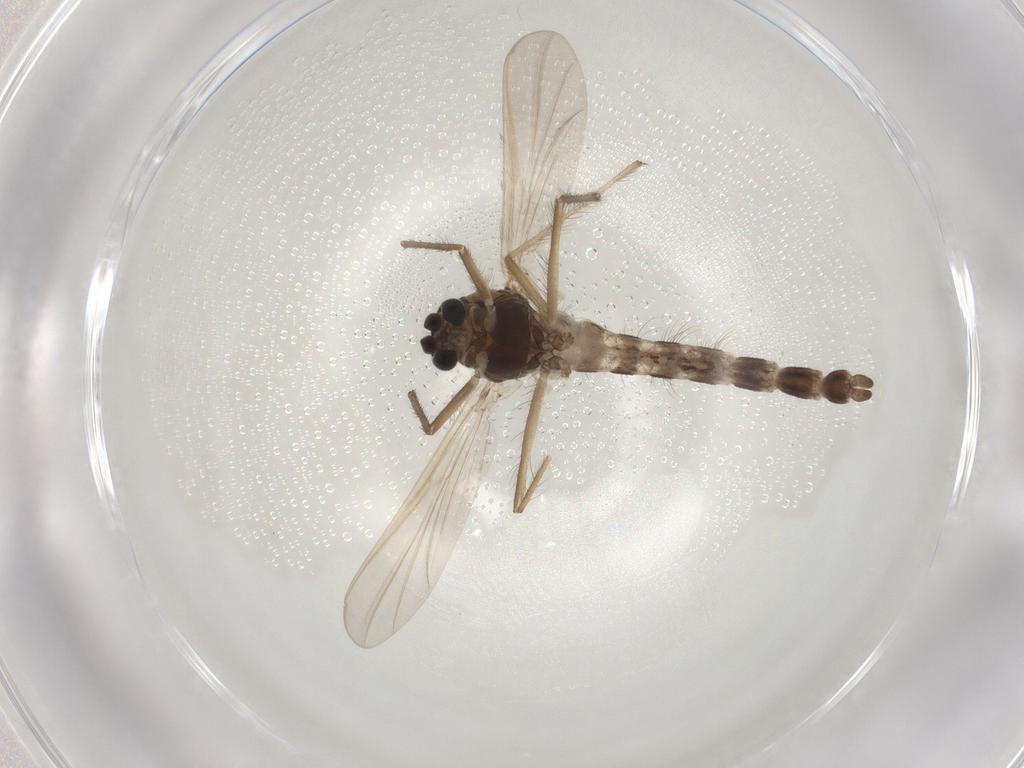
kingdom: Animalia
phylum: Arthropoda
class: Insecta
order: Diptera
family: Chironomidae
